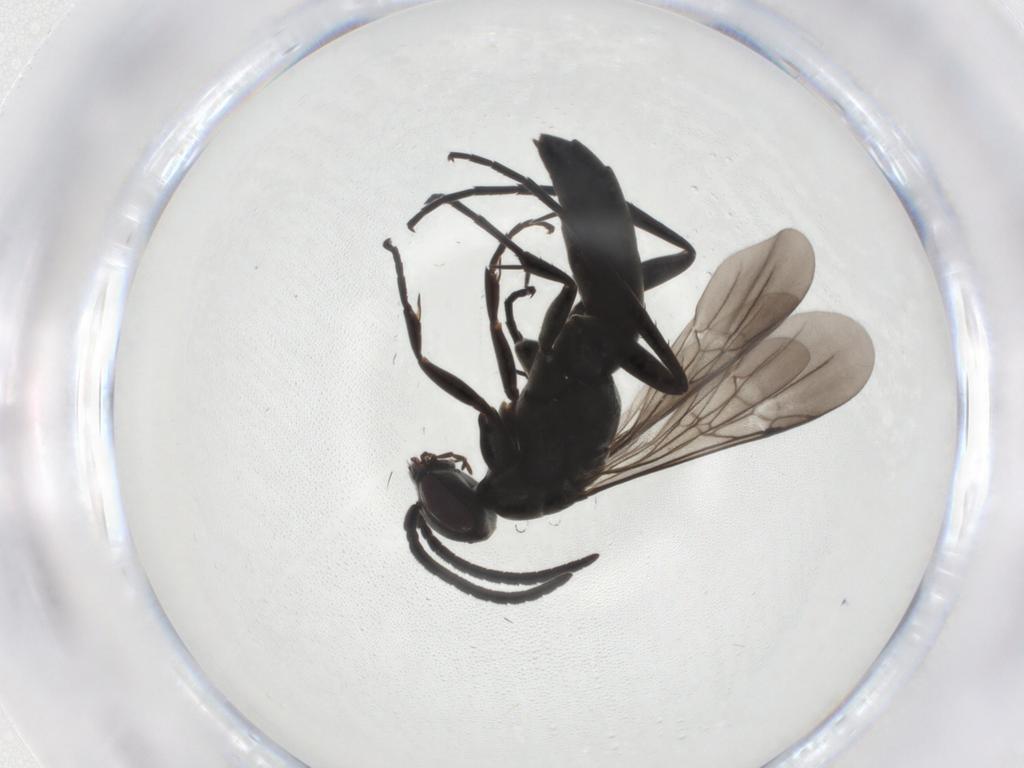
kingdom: Animalia
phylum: Arthropoda
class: Insecta
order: Hymenoptera
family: Pompilidae
